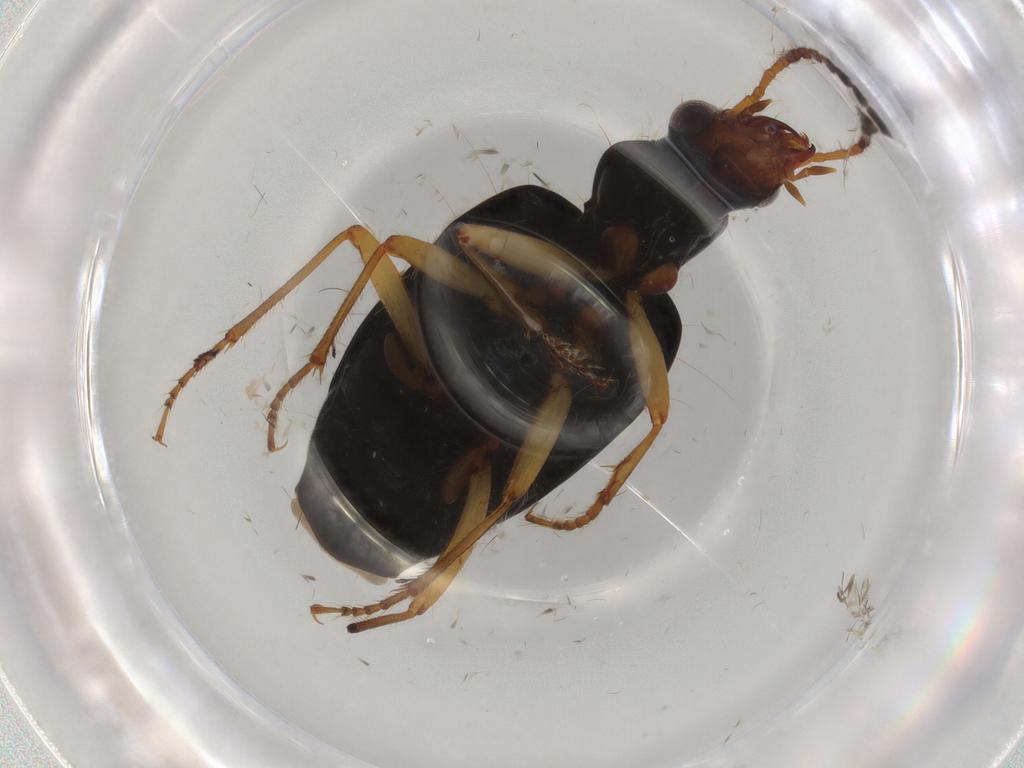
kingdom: Animalia
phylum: Arthropoda
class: Insecta
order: Coleoptera
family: Carabidae
